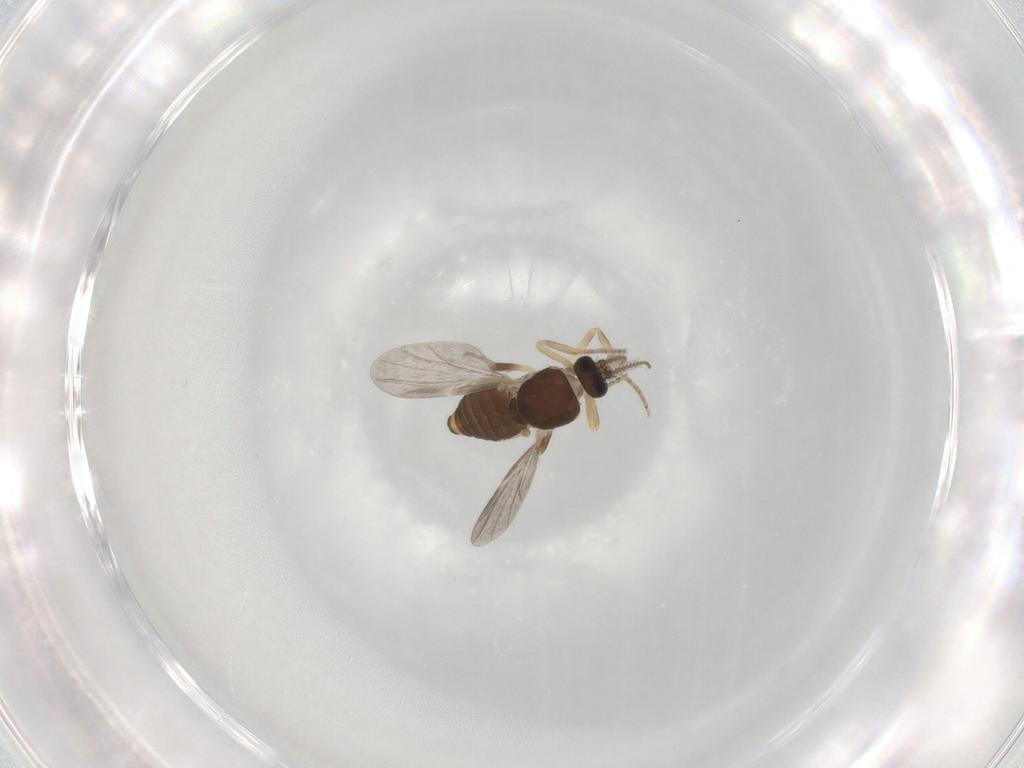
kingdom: Animalia
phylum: Arthropoda
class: Insecta
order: Diptera
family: Ceratopogonidae
